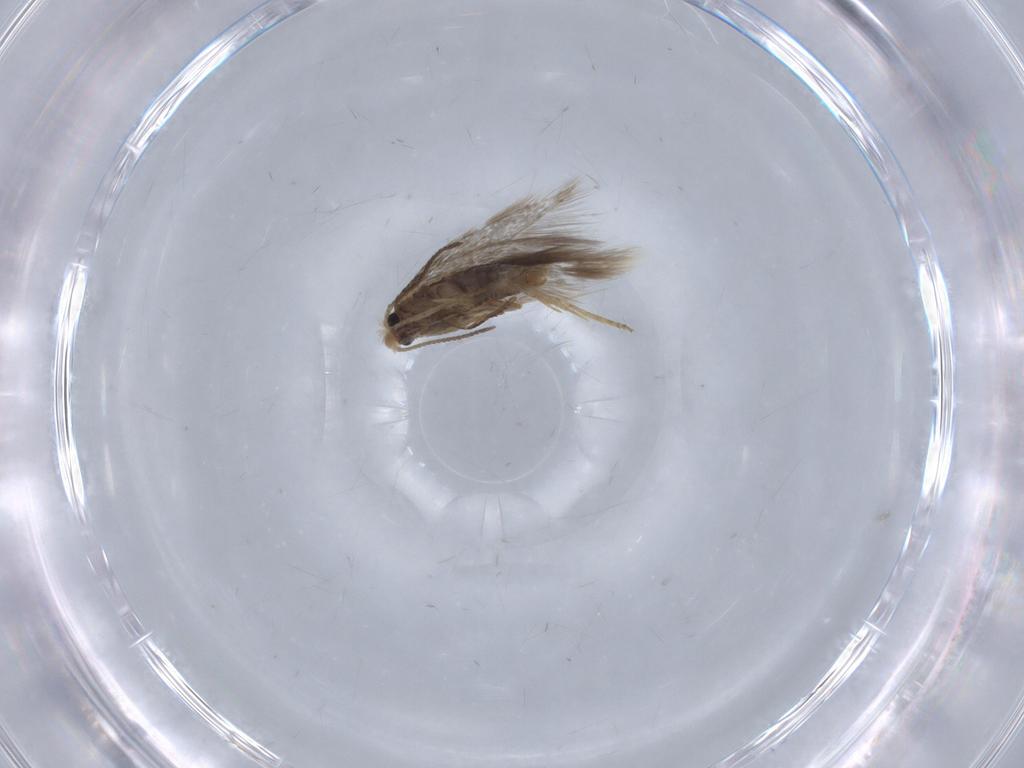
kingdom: Animalia
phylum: Arthropoda
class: Insecta
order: Lepidoptera
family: Nepticulidae
